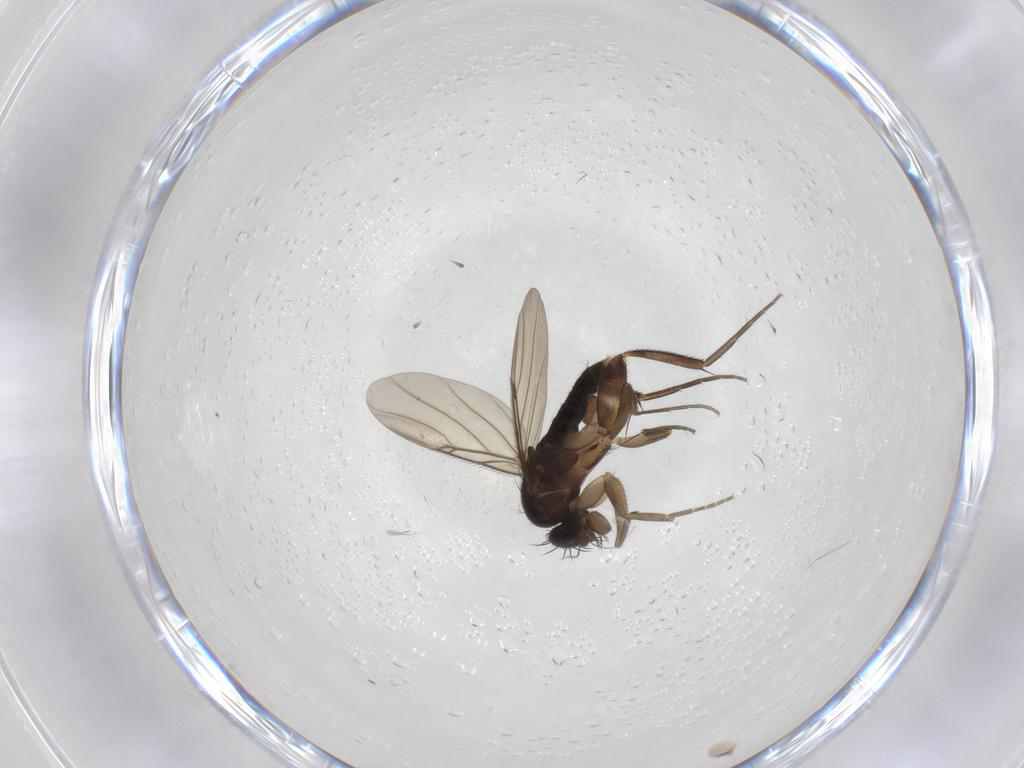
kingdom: Animalia
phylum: Arthropoda
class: Insecta
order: Diptera
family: Phoridae
